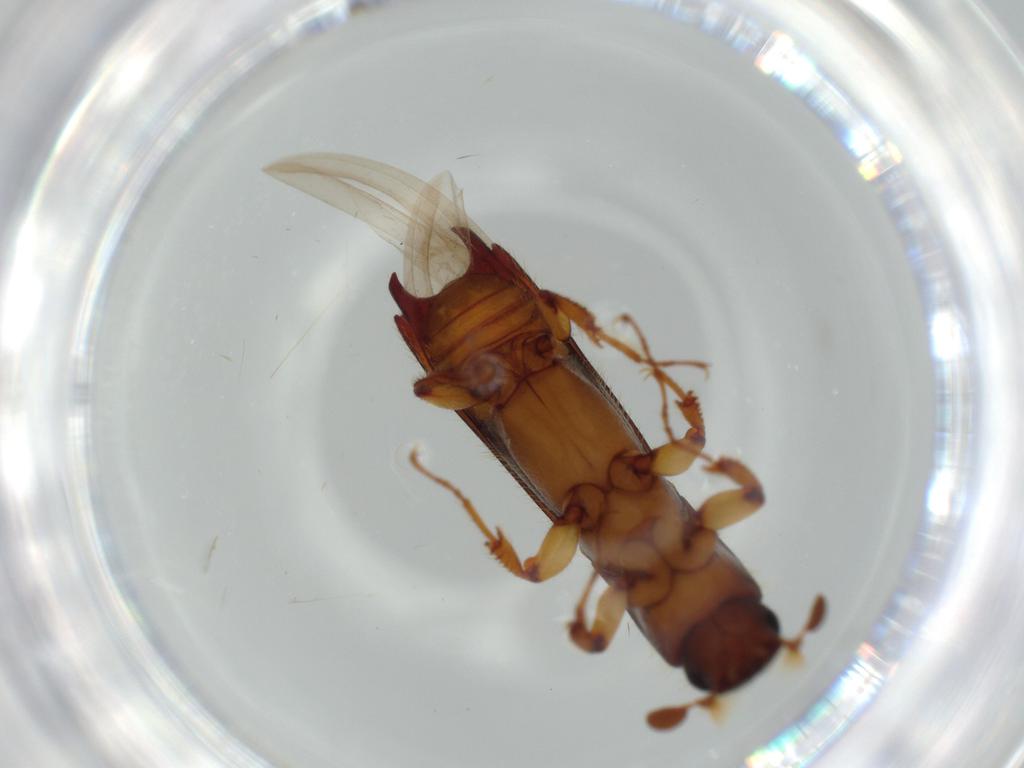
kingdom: Animalia
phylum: Arthropoda
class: Insecta
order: Coleoptera
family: Curculionidae
